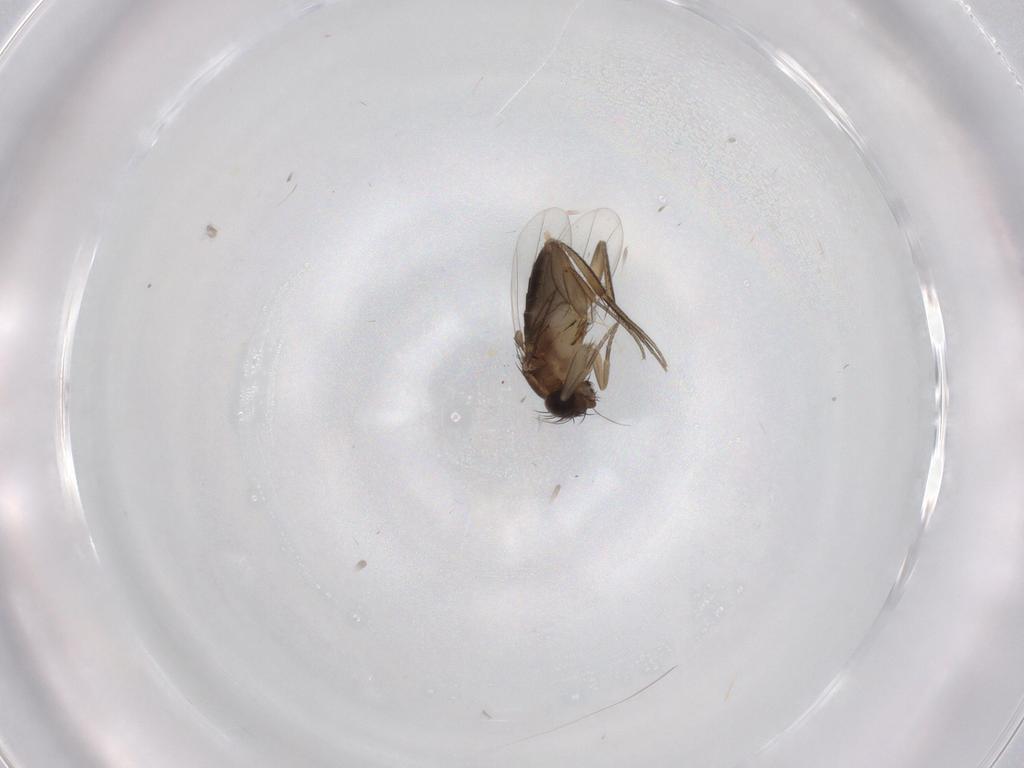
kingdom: Animalia
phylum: Arthropoda
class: Insecta
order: Diptera
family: Phoridae
